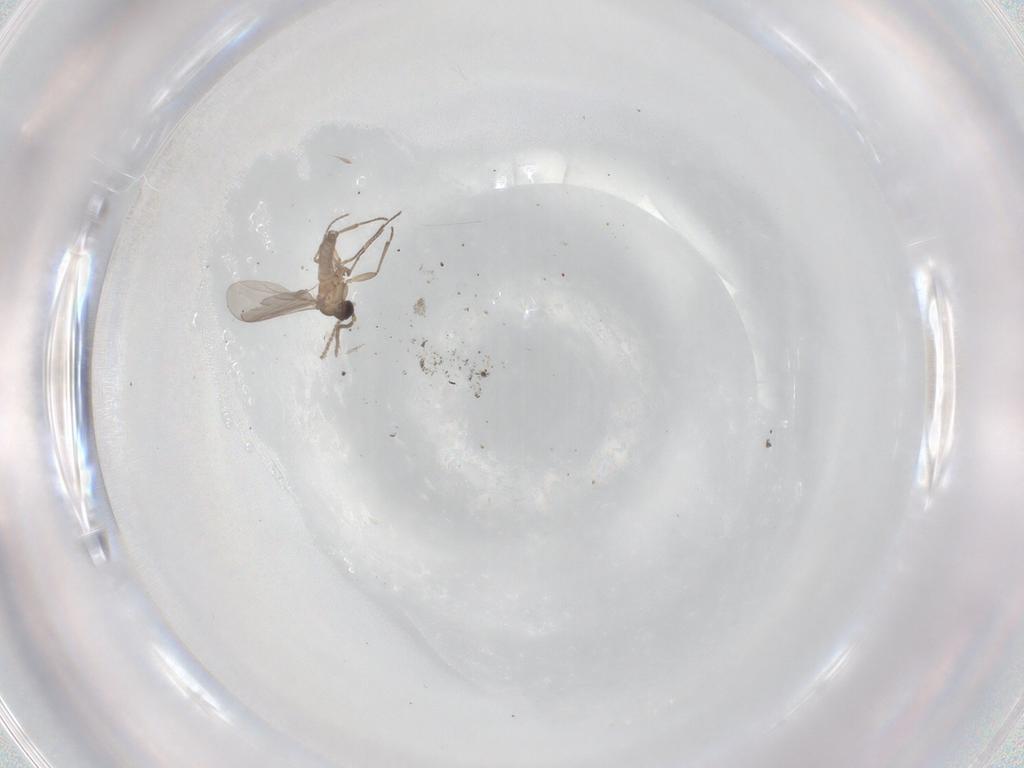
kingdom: Animalia
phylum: Arthropoda
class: Insecta
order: Diptera
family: Sciaridae
